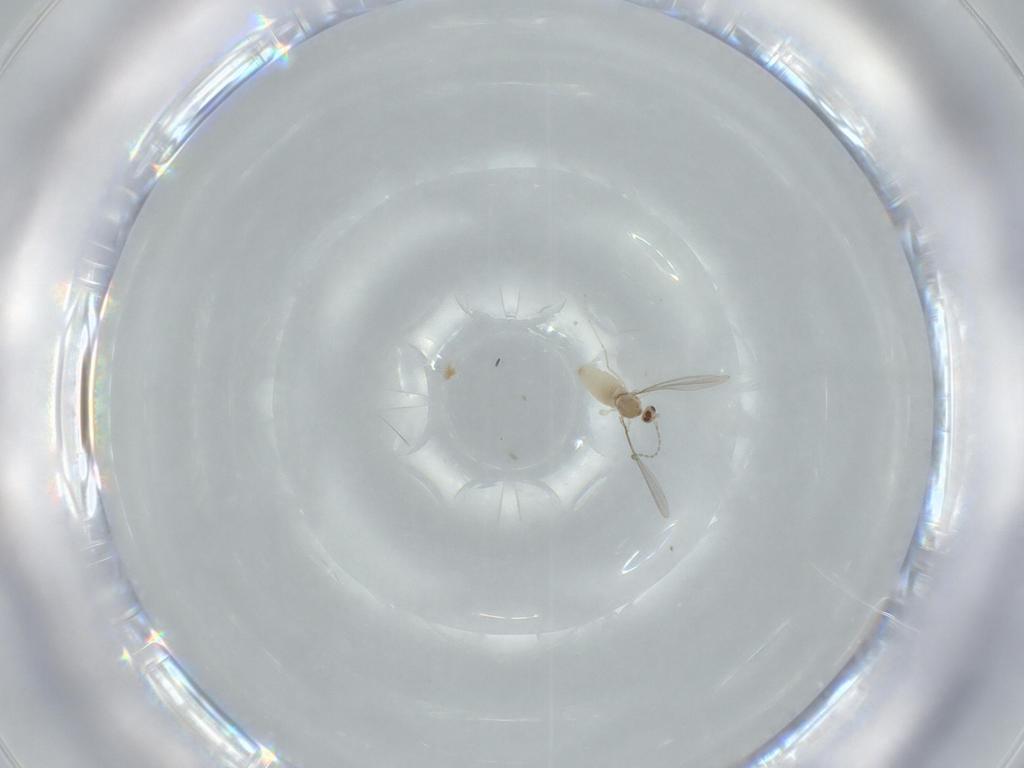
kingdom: Animalia
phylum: Arthropoda
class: Insecta
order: Diptera
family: Cecidomyiidae
